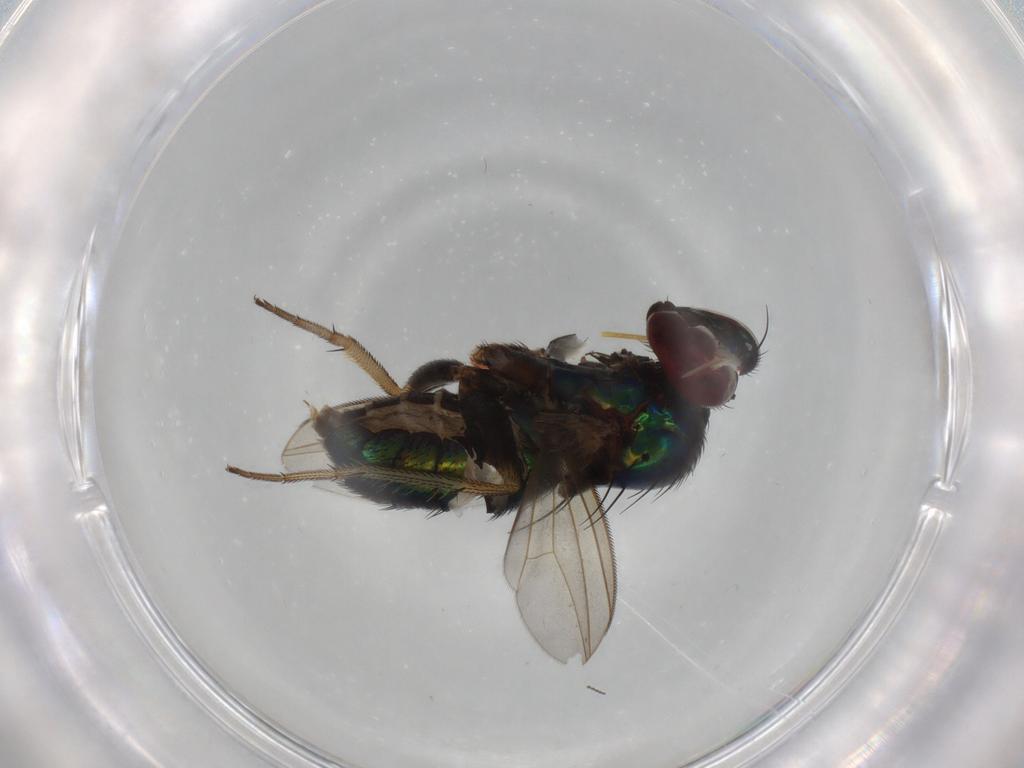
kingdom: Animalia
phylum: Arthropoda
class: Insecta
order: Diptera
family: Dolichopodidae
